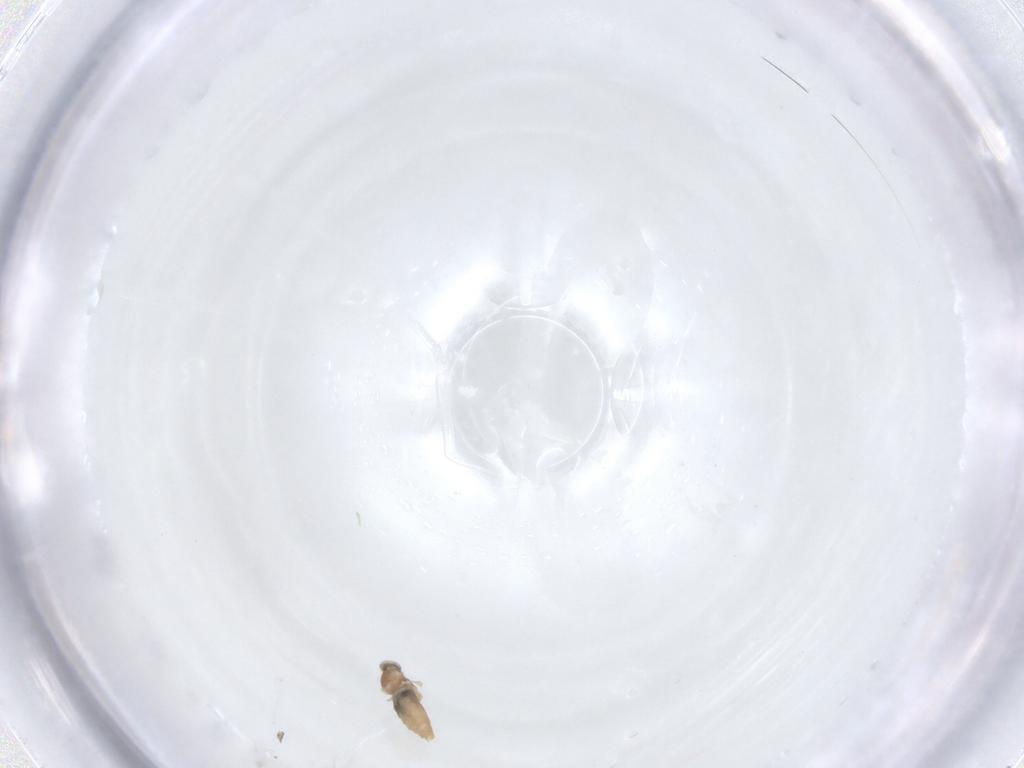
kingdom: Animalia
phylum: Arthropoda
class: Insecta
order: Diptera
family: Cecidomyiidae
